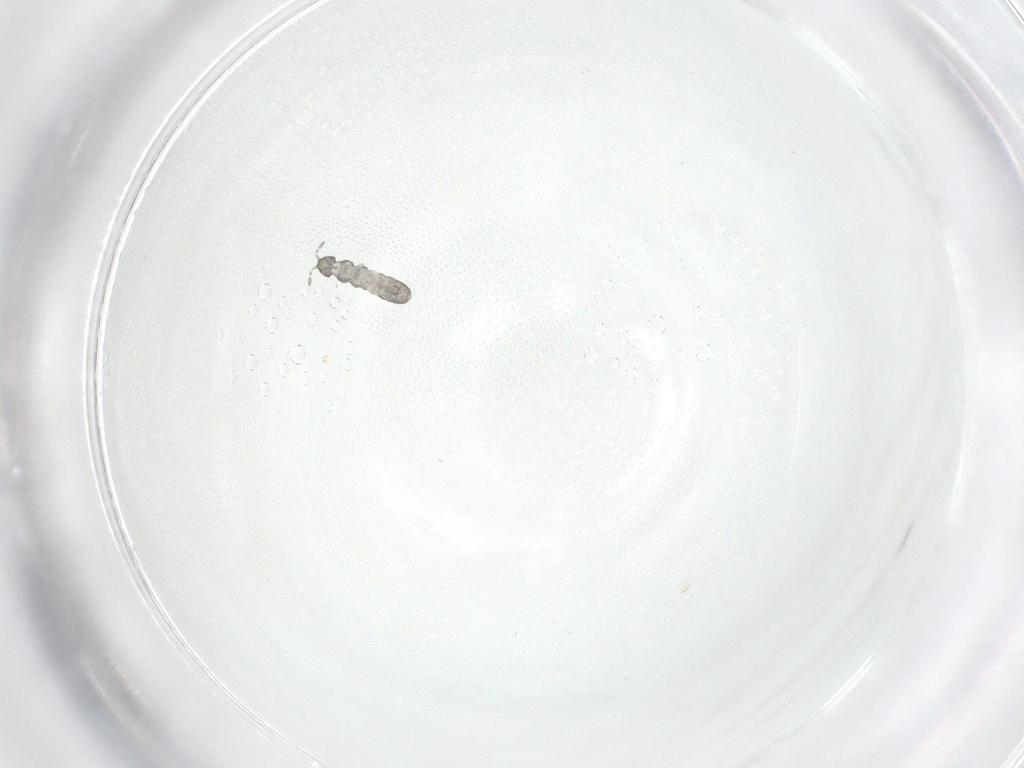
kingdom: Animalia
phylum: Arthropoda
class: Collembola
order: Entomobryomorpha
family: Isotomidae
